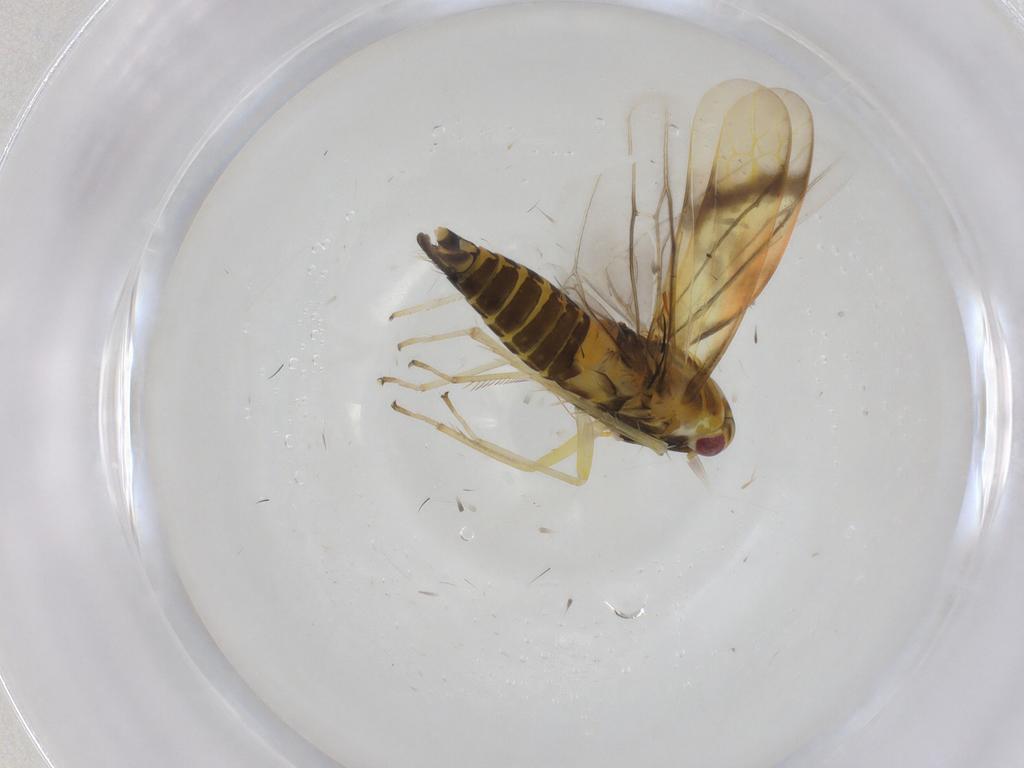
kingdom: Animalia
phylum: Arthropoda
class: Insecta
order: Hemiptera
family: Cicadellidae
